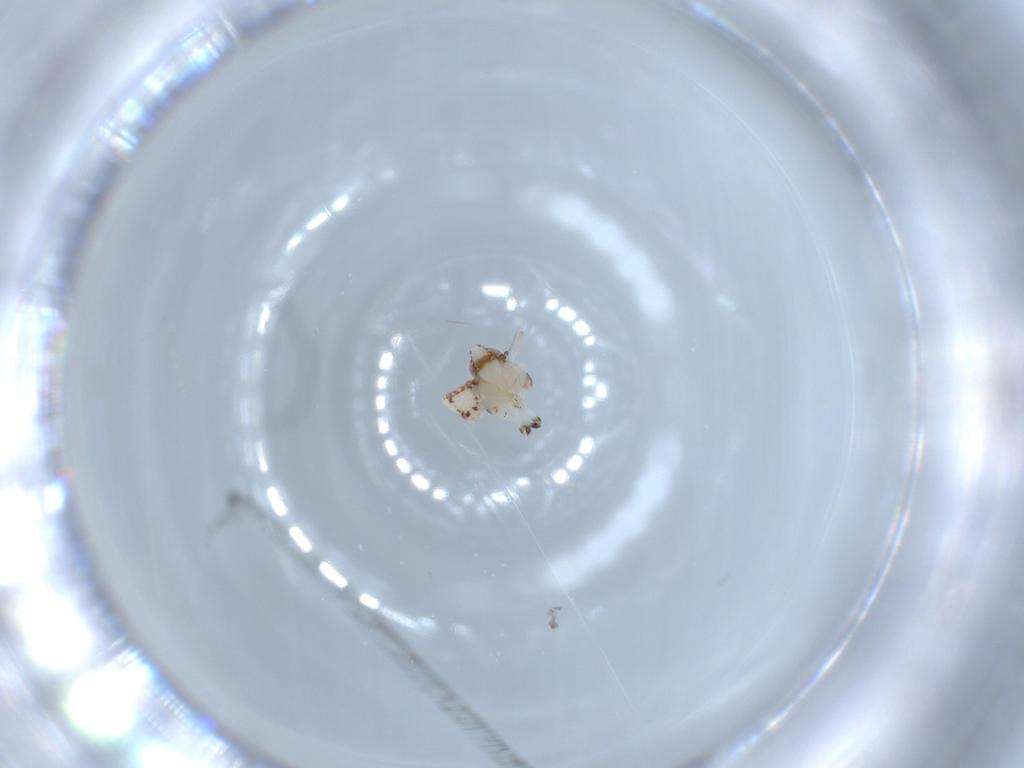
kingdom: Animalia
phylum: Arthropoda
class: Insecta
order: Hemiptera
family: Nogodinidae
